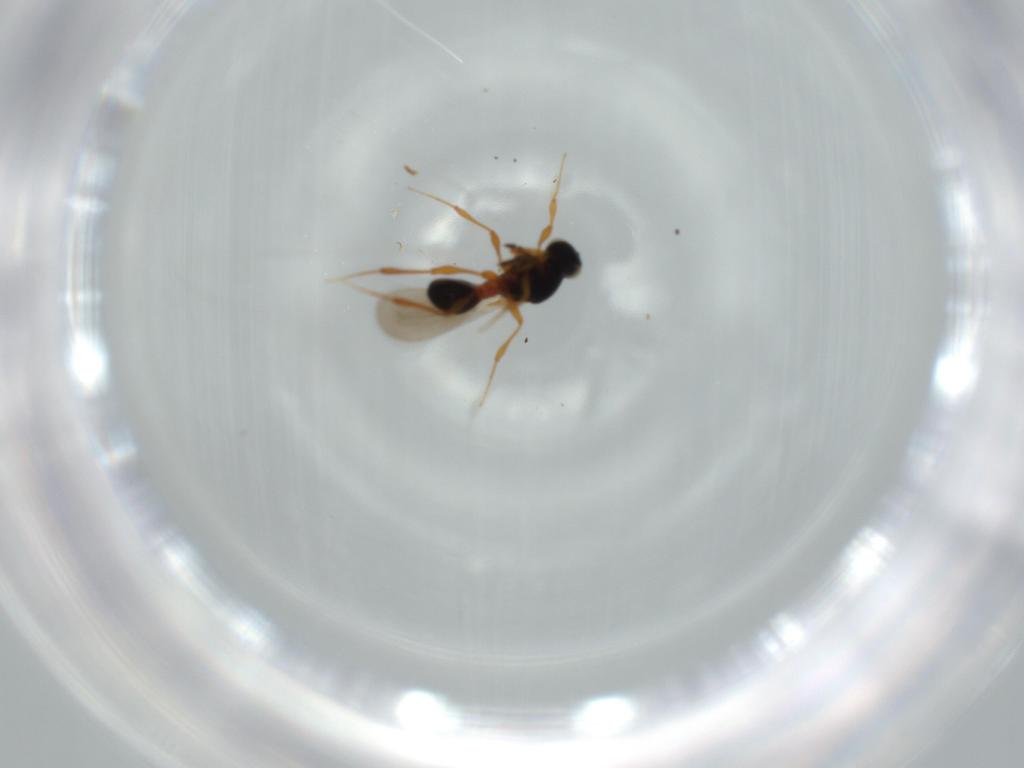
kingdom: Animalia
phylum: Arthropoda
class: Insecta
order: Hymenoptera
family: Platygastridae
